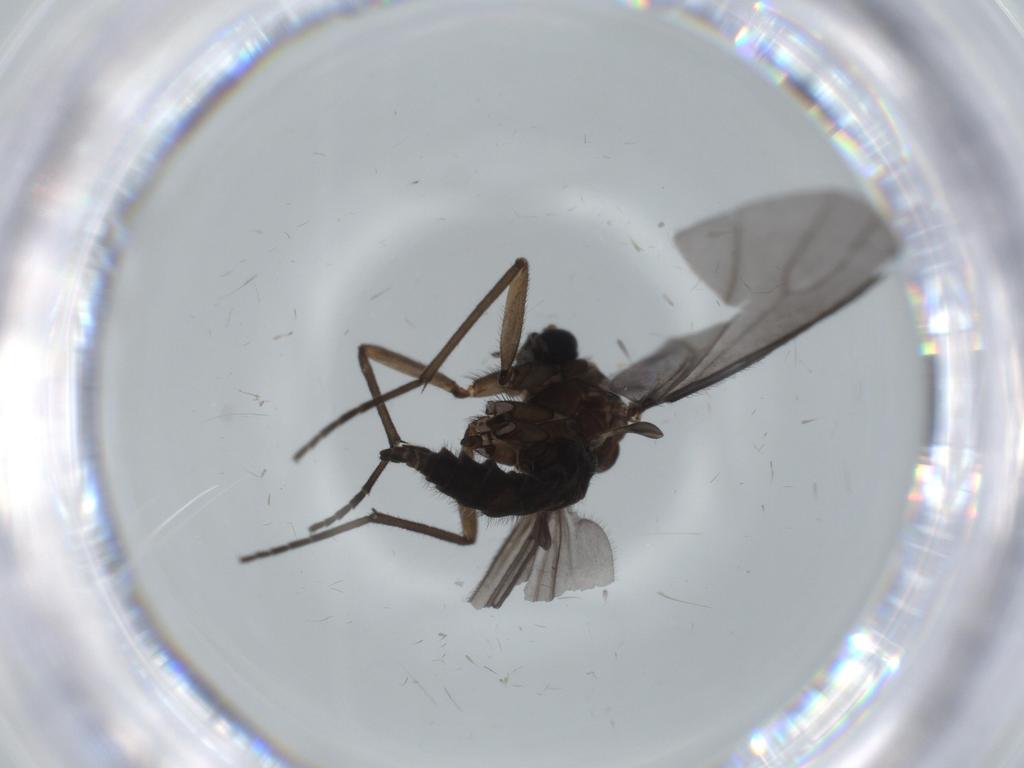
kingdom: Animalia
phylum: Arthropoda
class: Insecta
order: Diptera
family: Sciaridae
